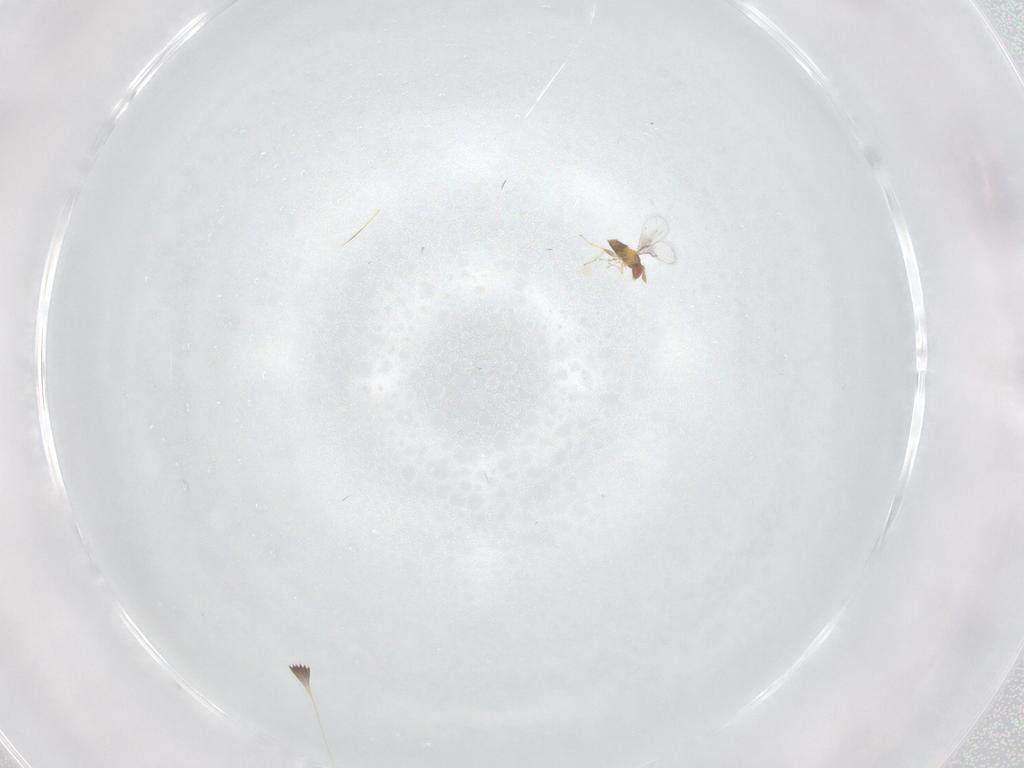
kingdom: Animalia
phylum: Arthropoda
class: Insecta
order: Hymenoptera
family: Trichogrammatidae
